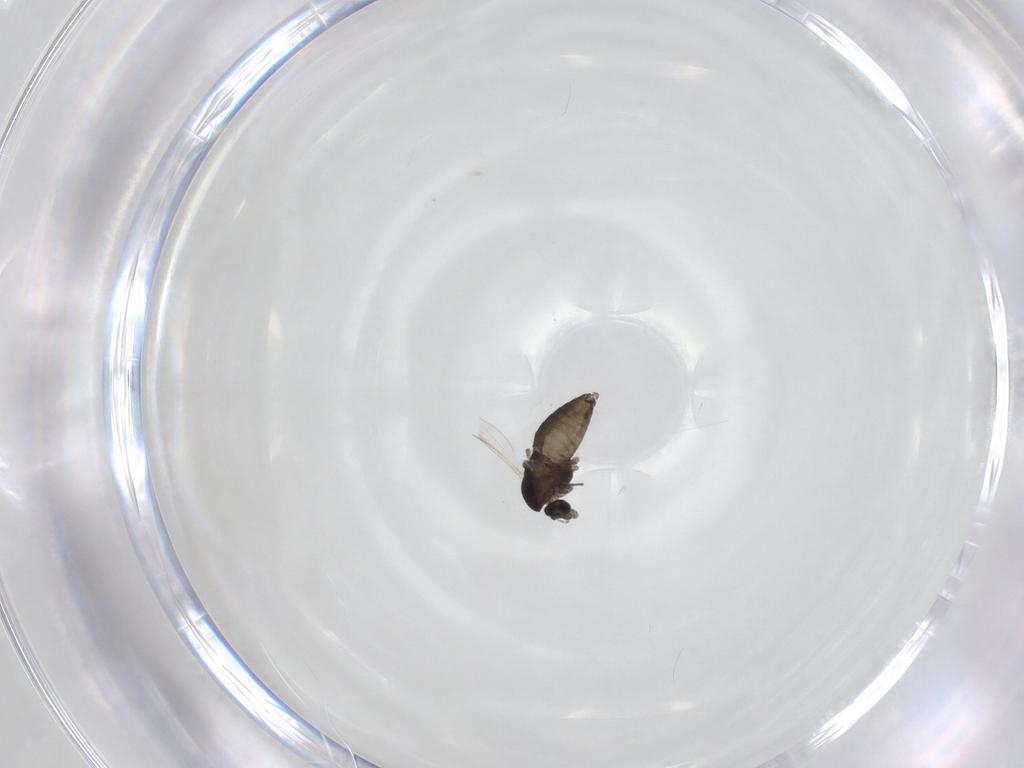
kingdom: Animalia
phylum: Arthropoda
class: Insecta
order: Diptera
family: Chironomidae
